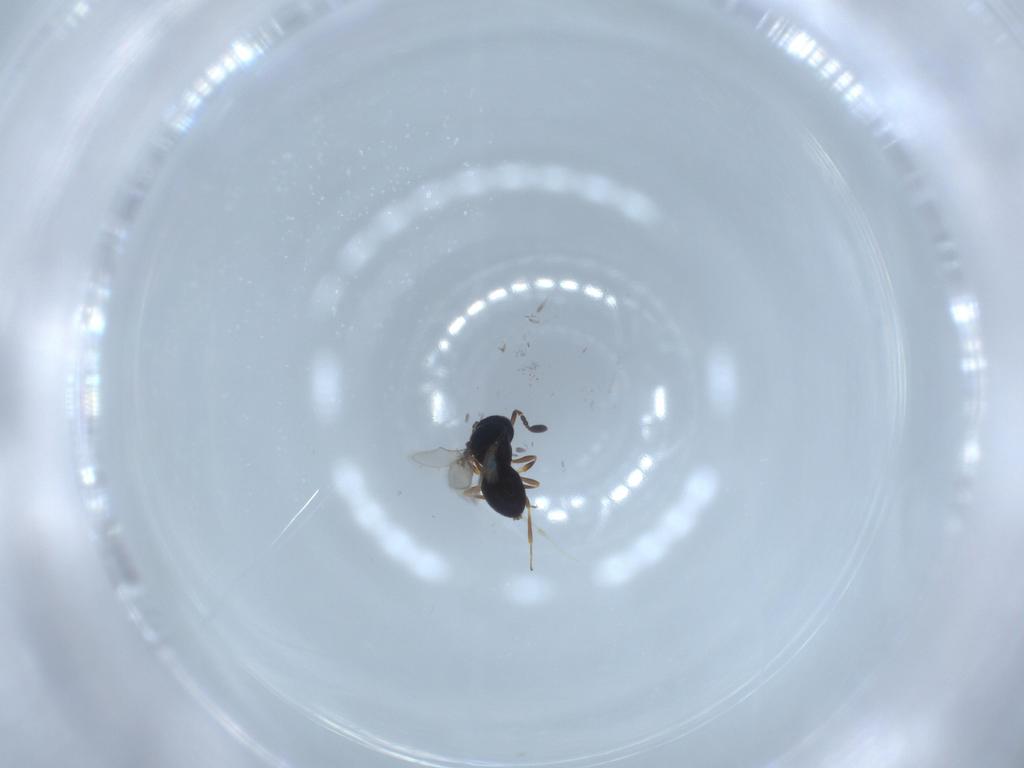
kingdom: Animalia
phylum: Arthropoda
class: Insecta
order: Hymenoptera
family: Scelionidae
